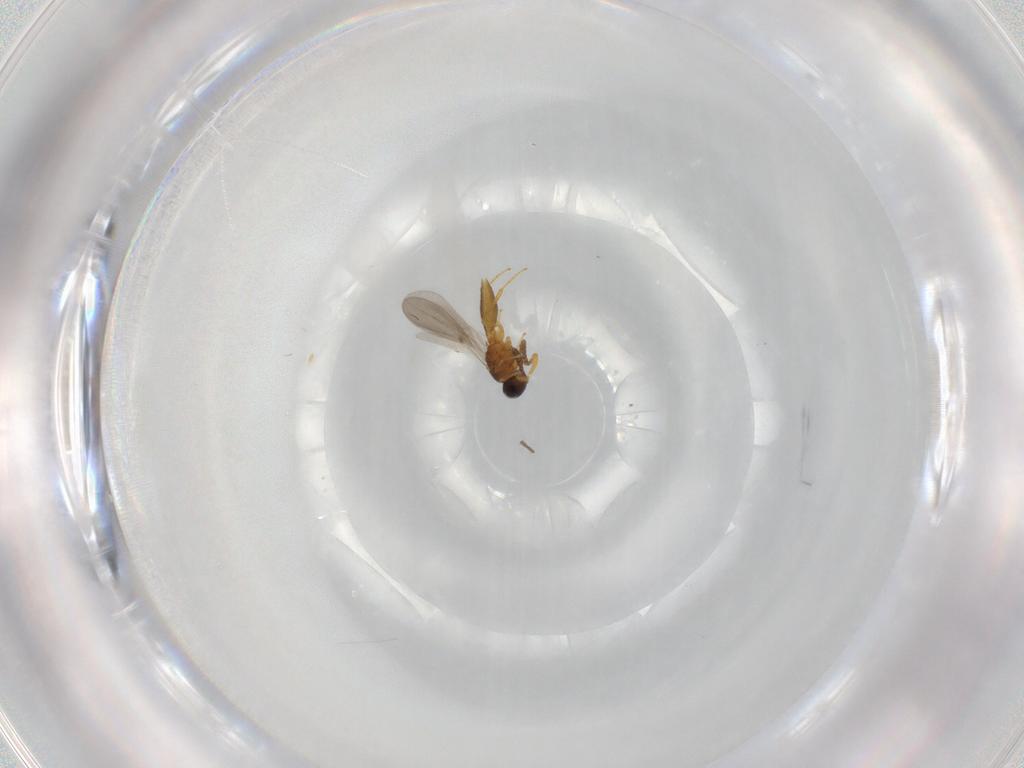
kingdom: Animalia
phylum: Arthropoda
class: Insecta
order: Hymenoptera
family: Platygastridae
